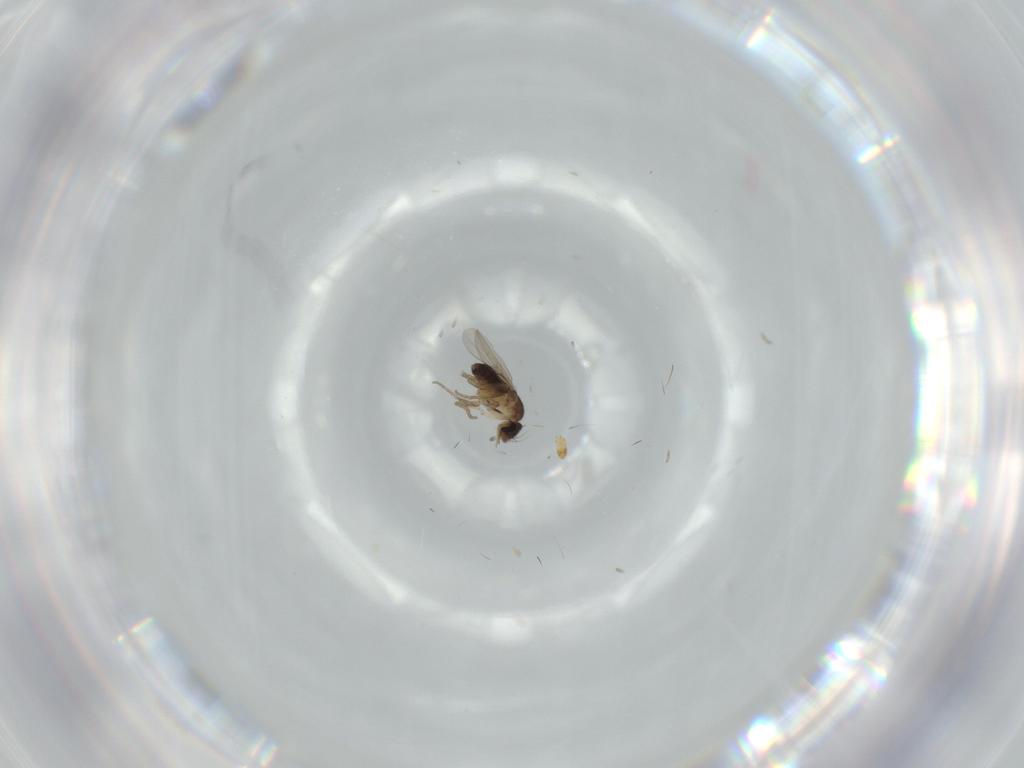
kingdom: Animalia
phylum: Arthropoda
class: Insecta
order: Diptera
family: Phoridae
